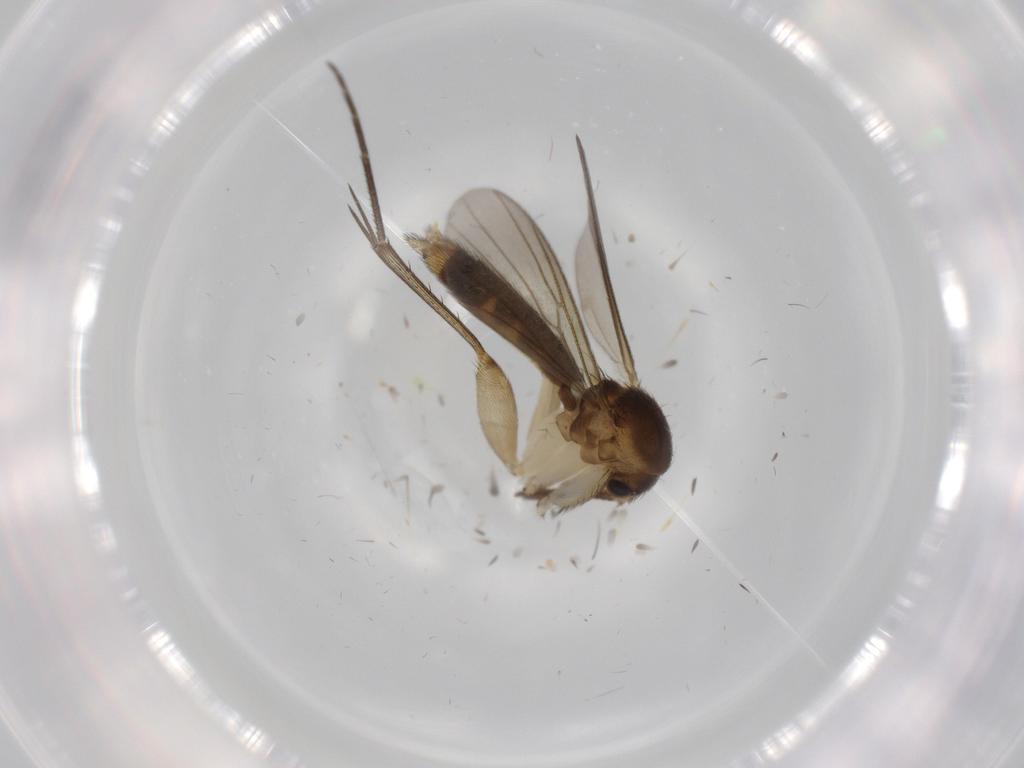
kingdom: Animalia
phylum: Arthropoda
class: Insecta
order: Diptera
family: Mycetophilidae
